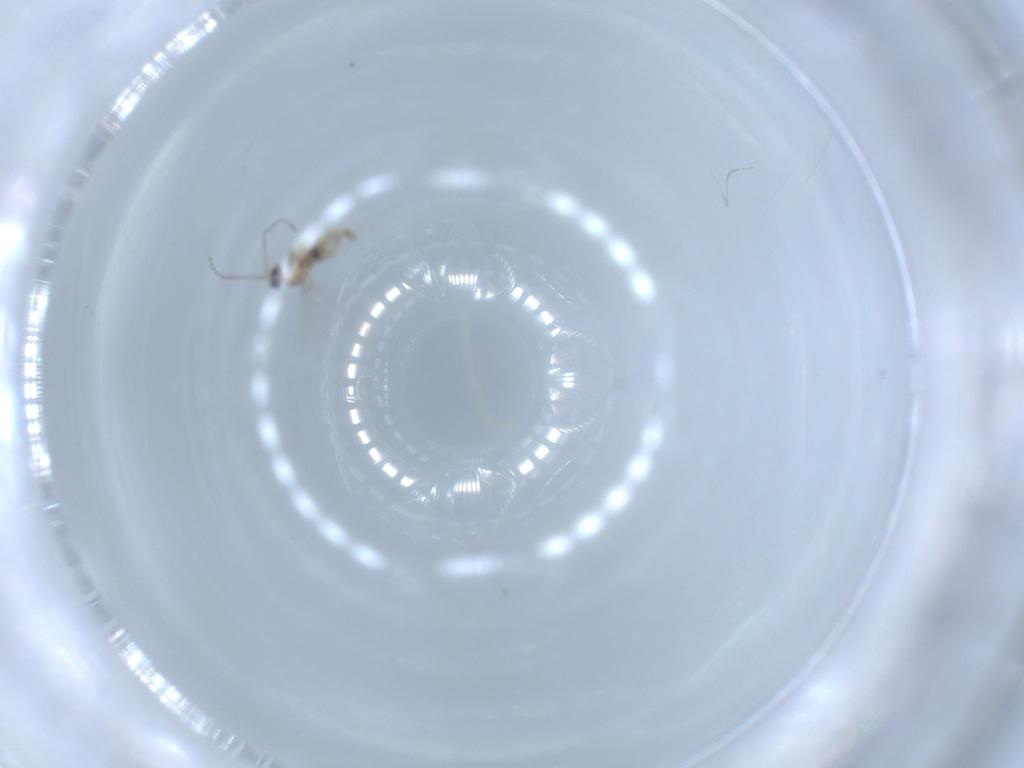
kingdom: Animalia
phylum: Arthropoda
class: Insecta
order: Diptera
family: Cecidomyiidae
